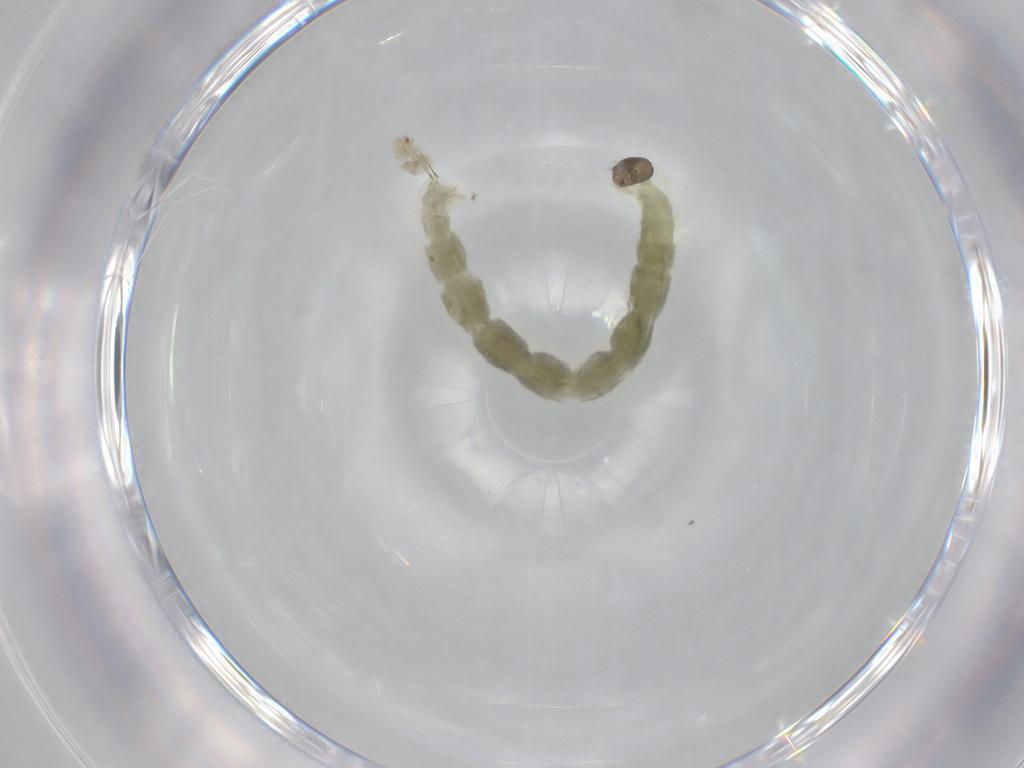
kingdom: Animalia
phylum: Arthropoda
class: Insecta
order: Diptera
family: Chironomidae
